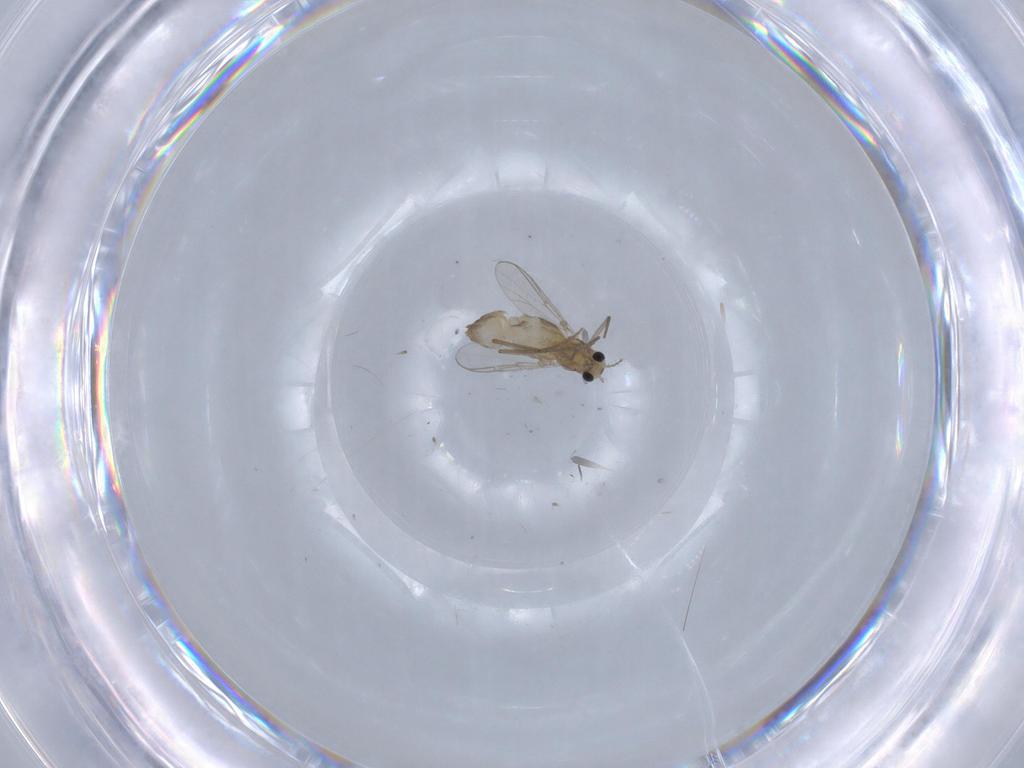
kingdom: Animalia
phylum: Arthropoda
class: Insecta
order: Diptera
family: Chironomidae
